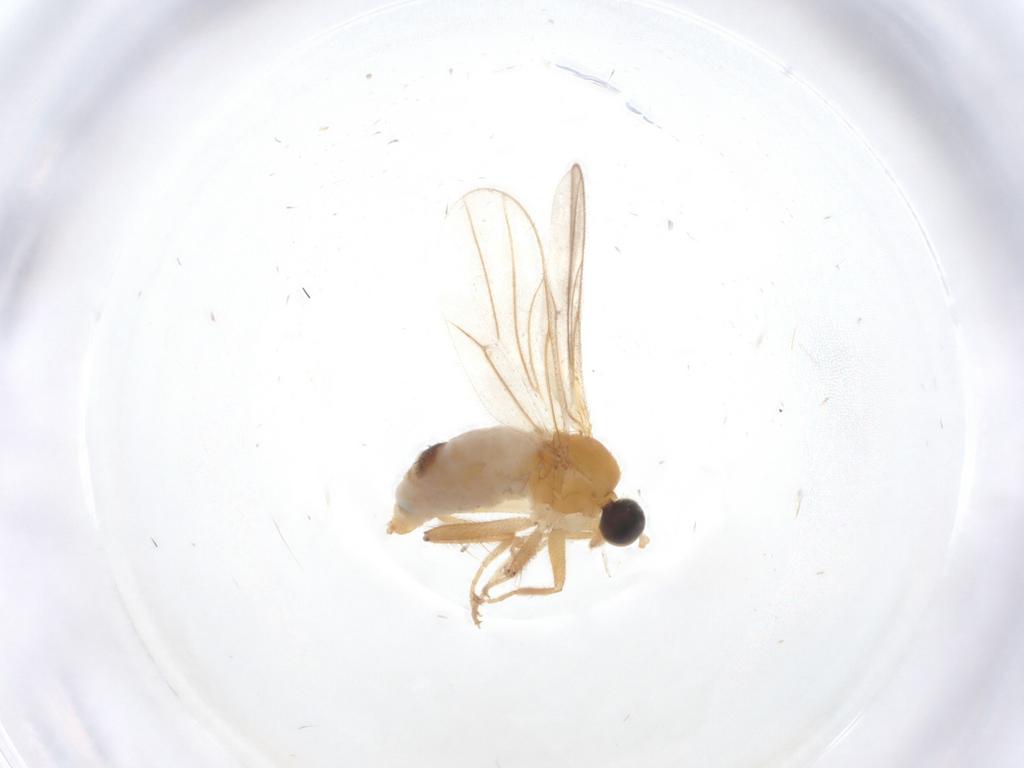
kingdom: Animalia
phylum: Arthropoda
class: Insecta
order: Diptera
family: Hybotidae
